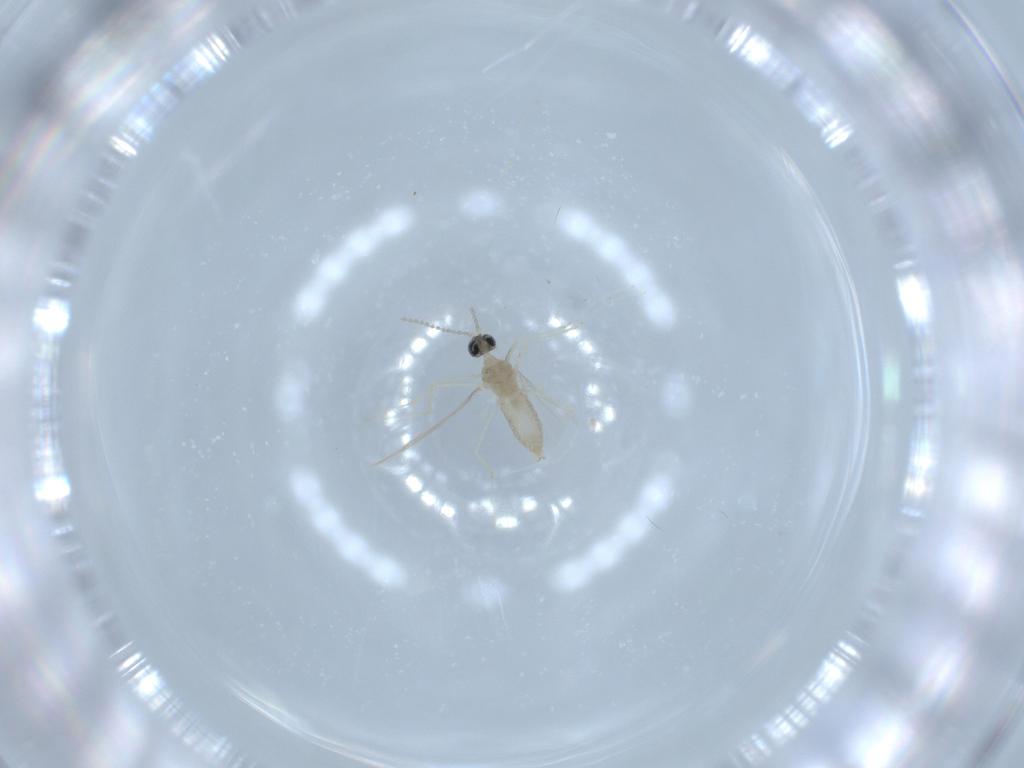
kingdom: Animalia
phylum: Arthropoda
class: Insecta
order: Diptera
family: Cecidomyiidae
